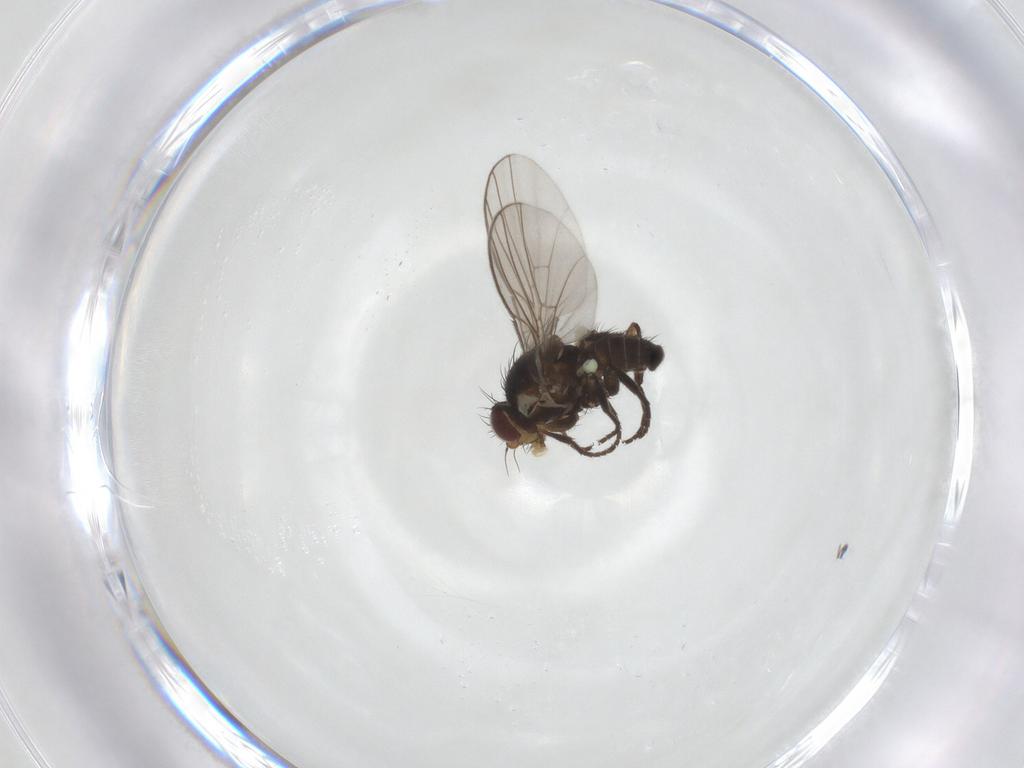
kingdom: Animalia
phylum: Arthropoda
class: Insecta
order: Diptera
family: Agromyzidae
